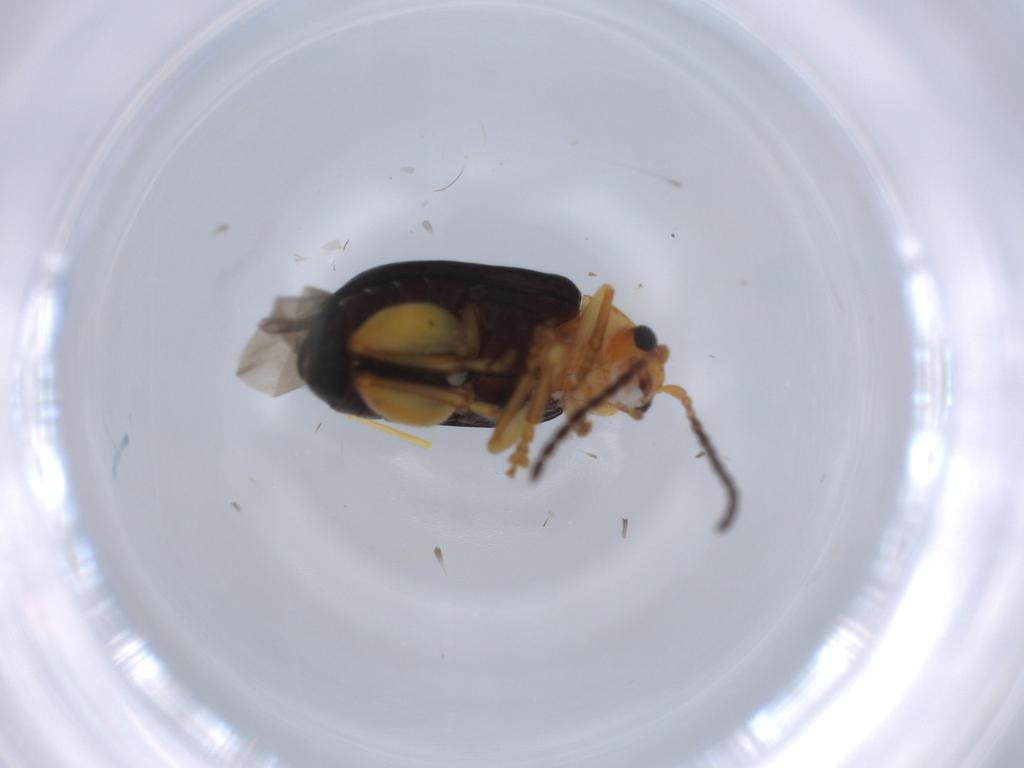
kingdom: Animalia
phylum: Arthropoda
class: Insecta
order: Coleoptera
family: Chrysomelidae
